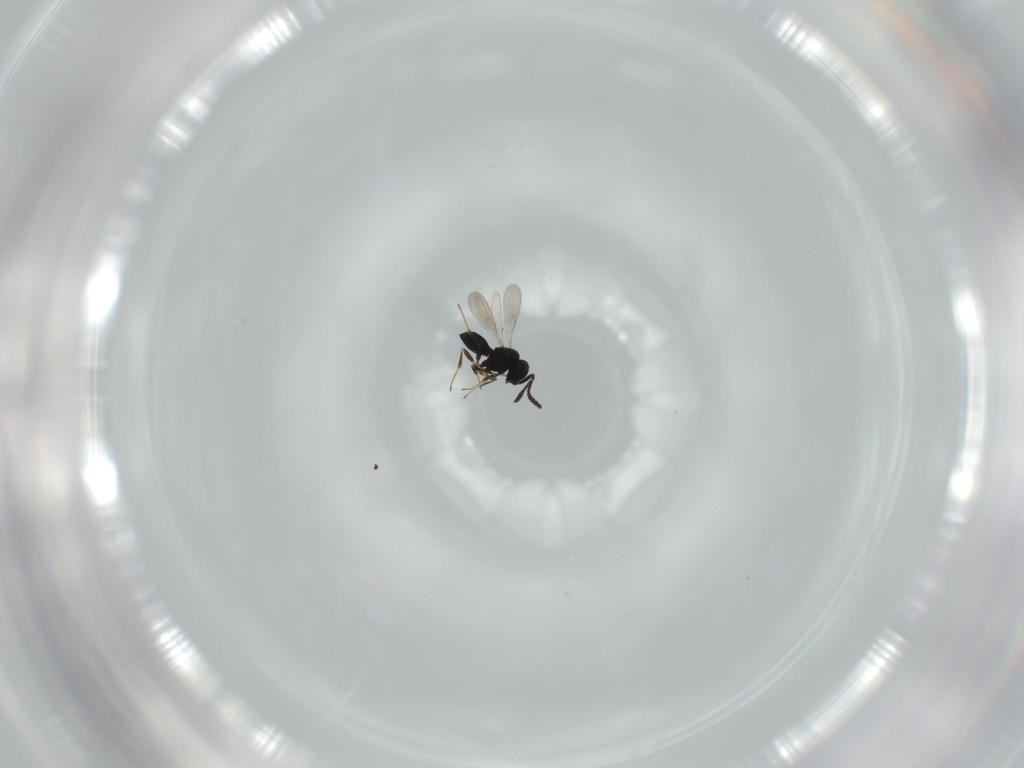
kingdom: Animalia
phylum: Arthropoda
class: Insecta
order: Hymenoptera
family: Scelionidae
